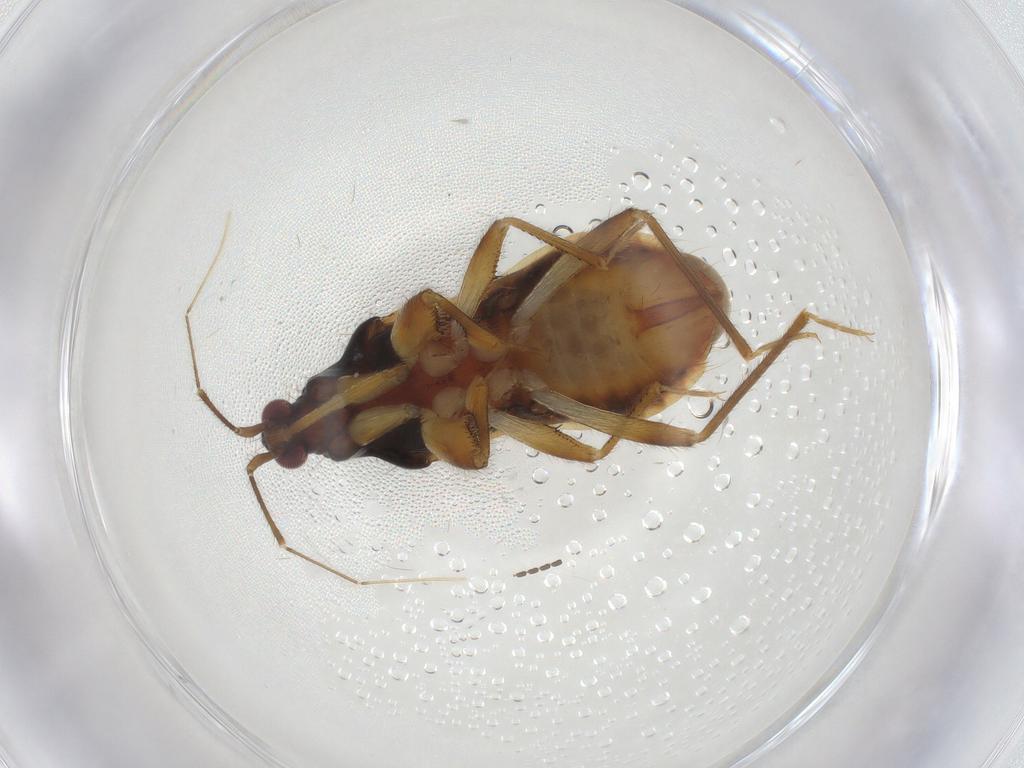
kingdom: Animalia
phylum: Arthropoda
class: Insecta
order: Hemiptera
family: Nabidae
